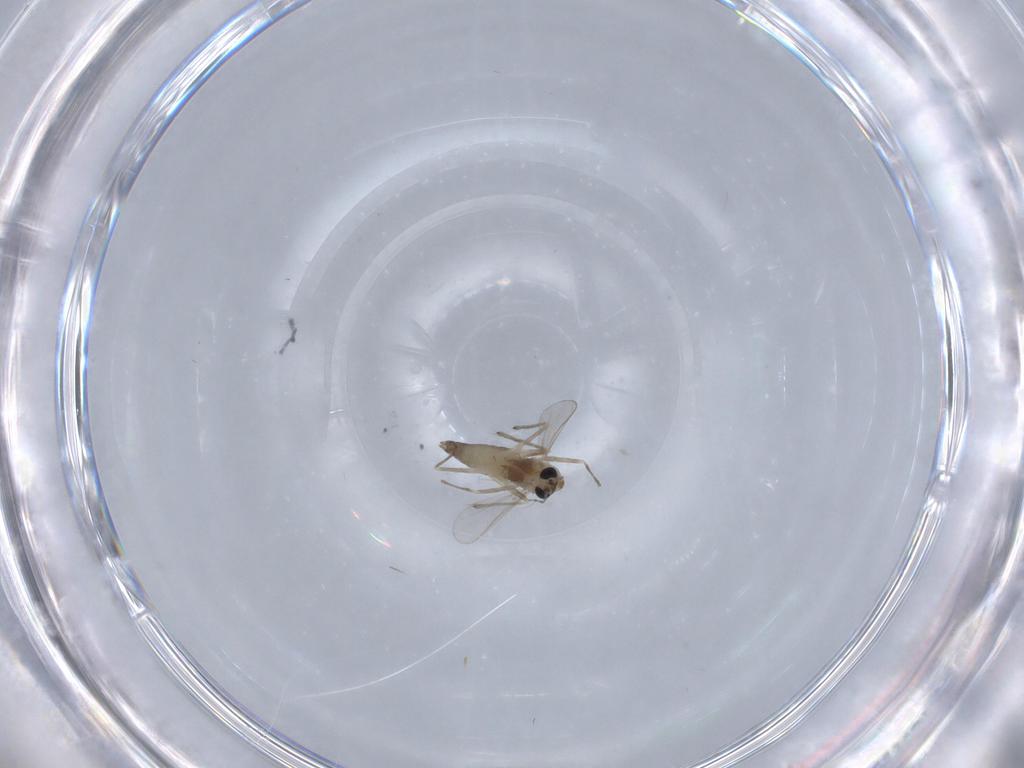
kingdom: Animalia
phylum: Arthropoda
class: Insecta
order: Diptera
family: Chironomidae
